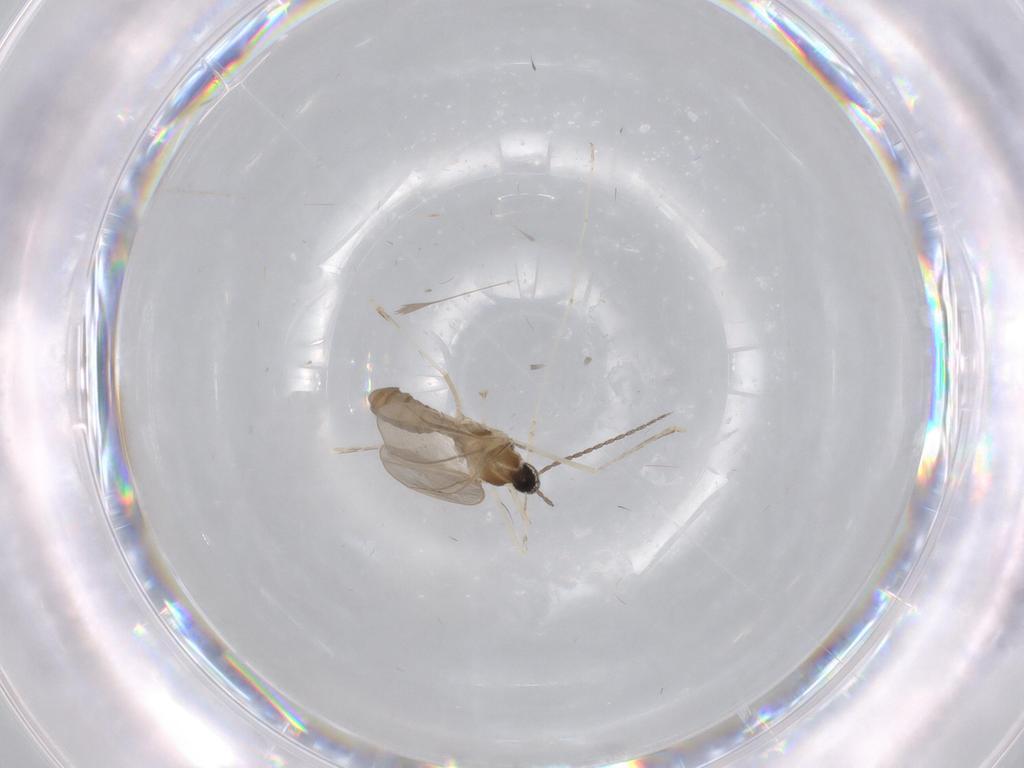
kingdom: Animalia
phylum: Arthropoda
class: Insecta
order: Diptera
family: Cecidomyiidae
